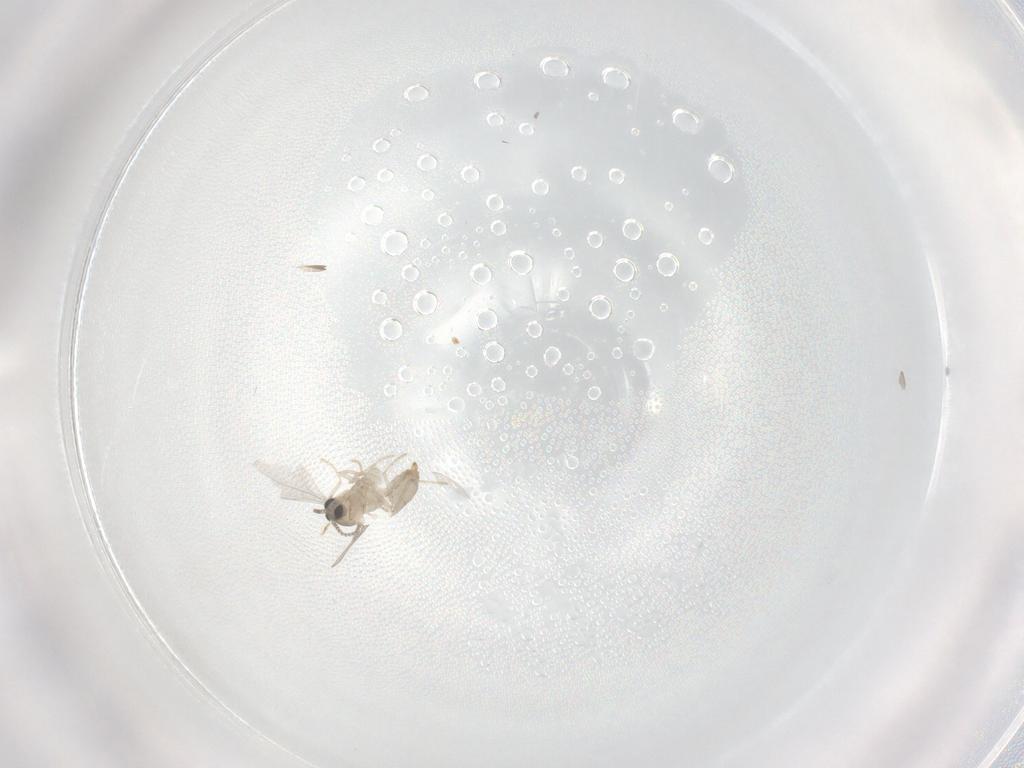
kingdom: Animalia
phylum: Arthropoda
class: Insecta
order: Diptera
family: Cecidomyiidae
